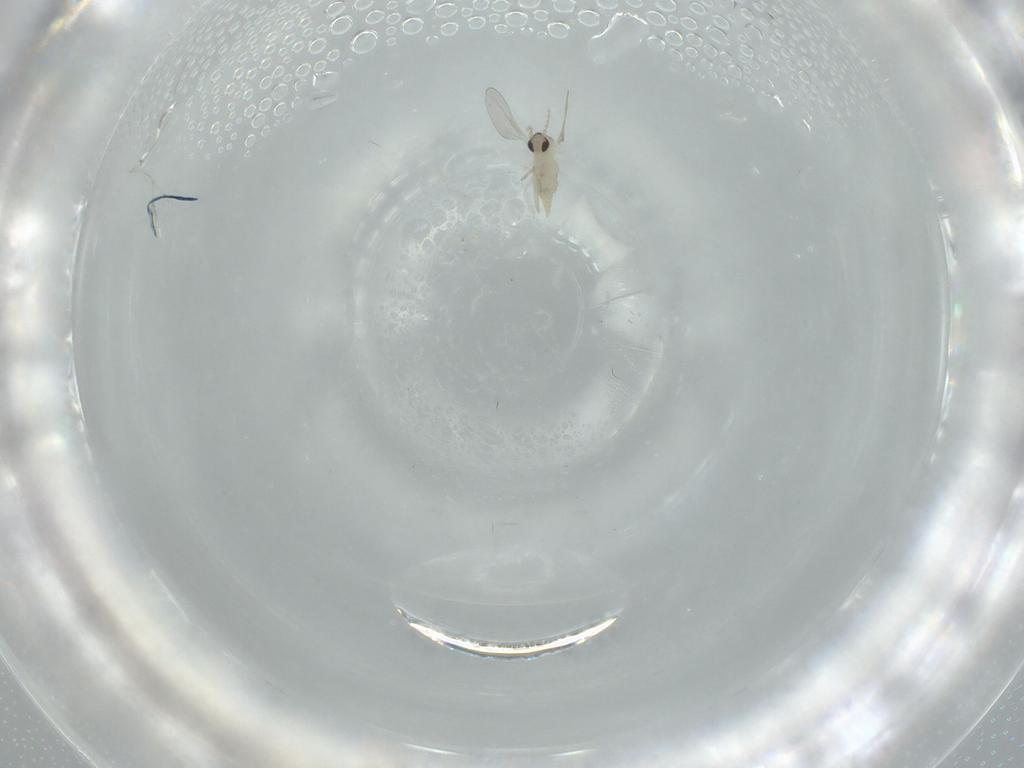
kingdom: Animalia
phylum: Arthropoda
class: Insecta
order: Diptera
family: Cecidomyiidae
